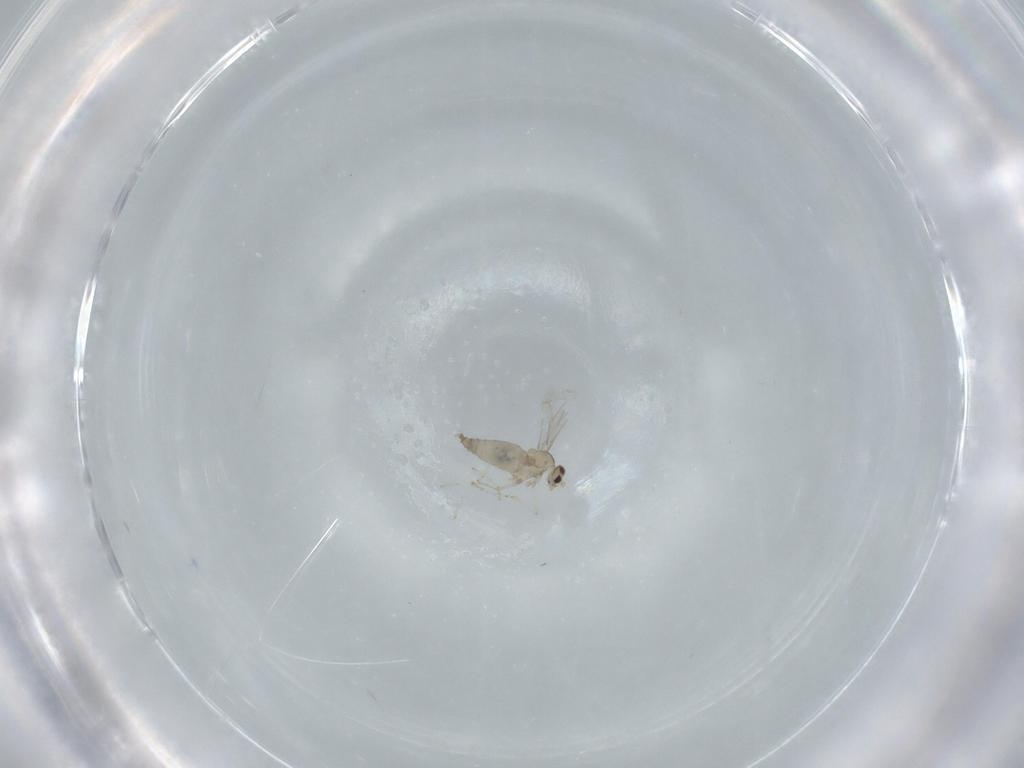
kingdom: Animalia
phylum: Arthropoda
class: Insecta
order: Diptera
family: Cecidomyiidae
